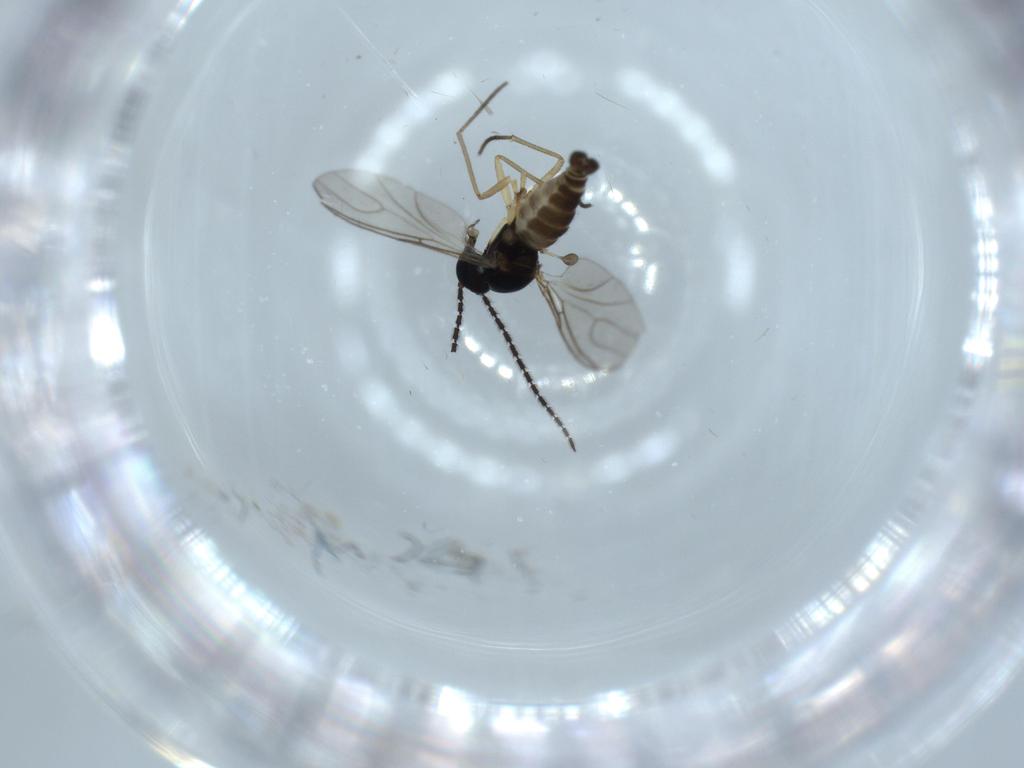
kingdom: Animalia
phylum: Arthropoda
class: Insecta
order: Diptera
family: Sciaridae
